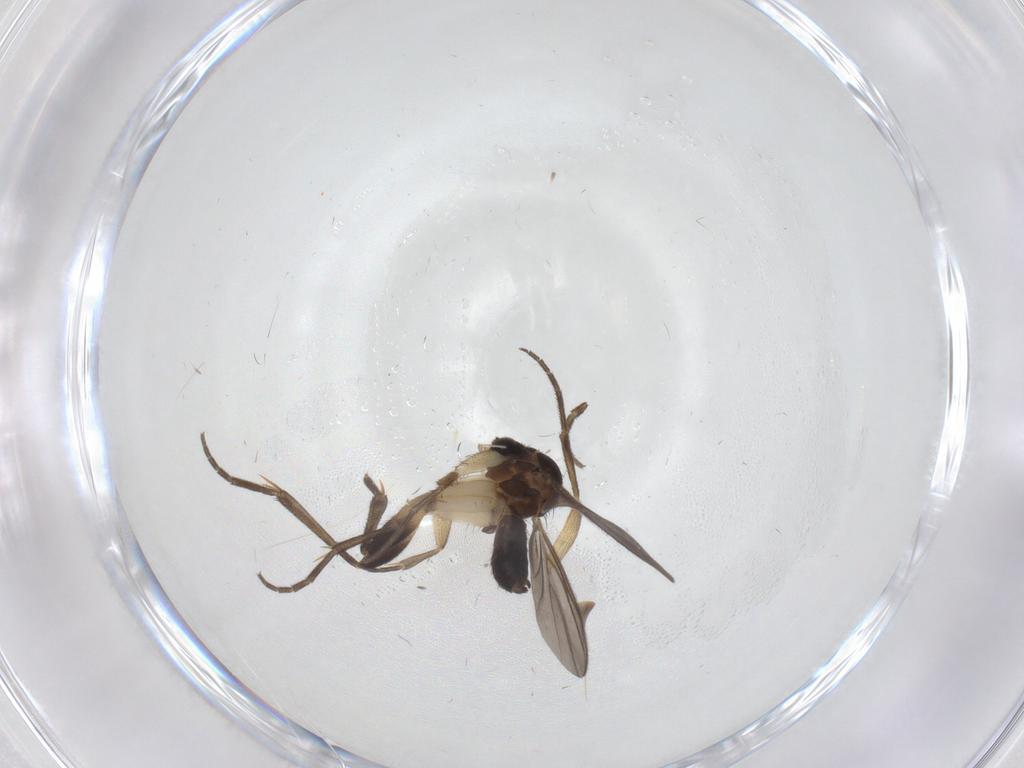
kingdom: Animalia
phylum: Arthropoda
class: Insecta
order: Diptera
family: Mycetophilidae
